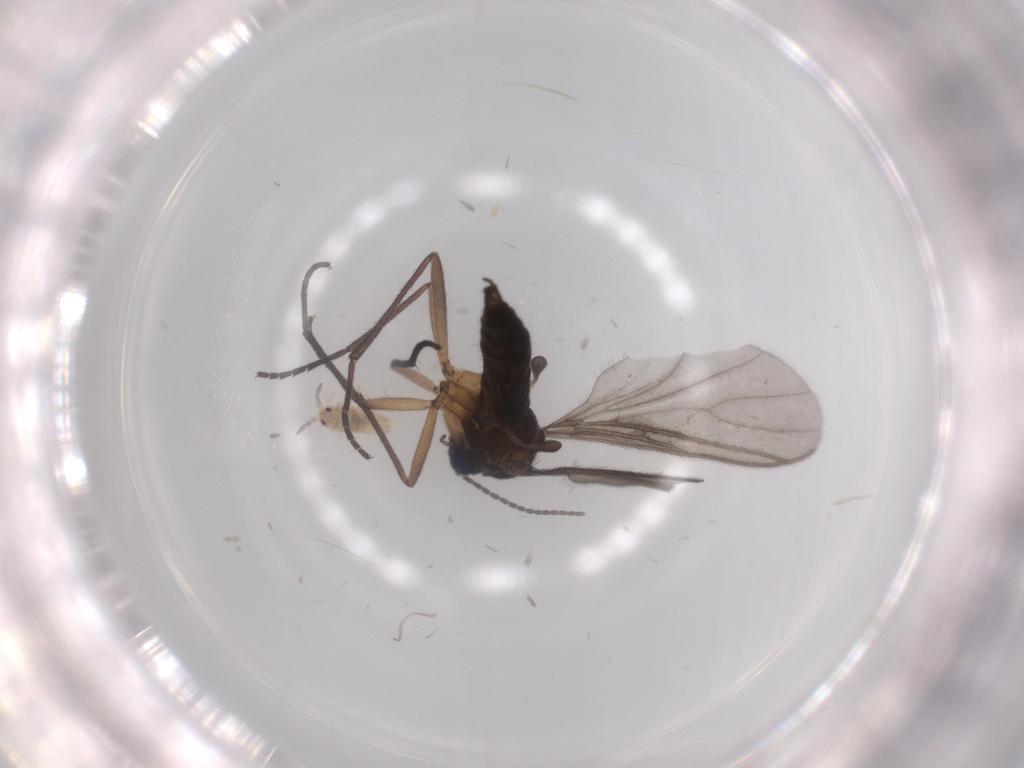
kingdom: Animalia
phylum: Arthropoda
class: Insecta
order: Diptera
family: Sciaridae
